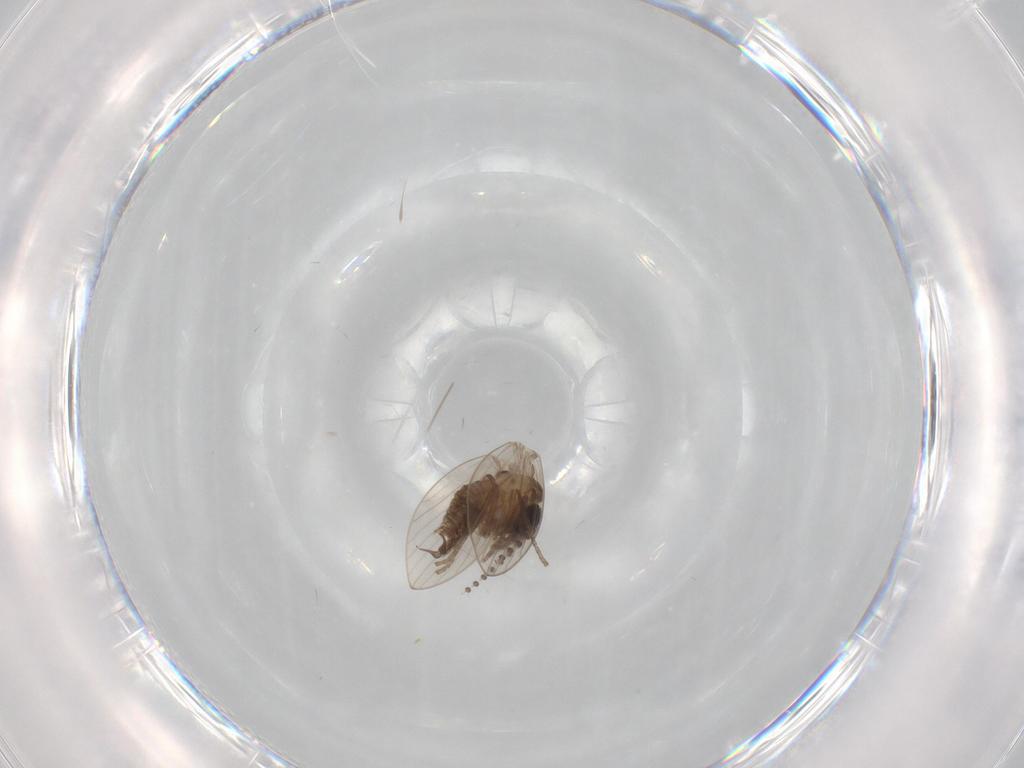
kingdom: Animalia
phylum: Arthropoda
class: Insecta
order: Diptera
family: Psychodidae
